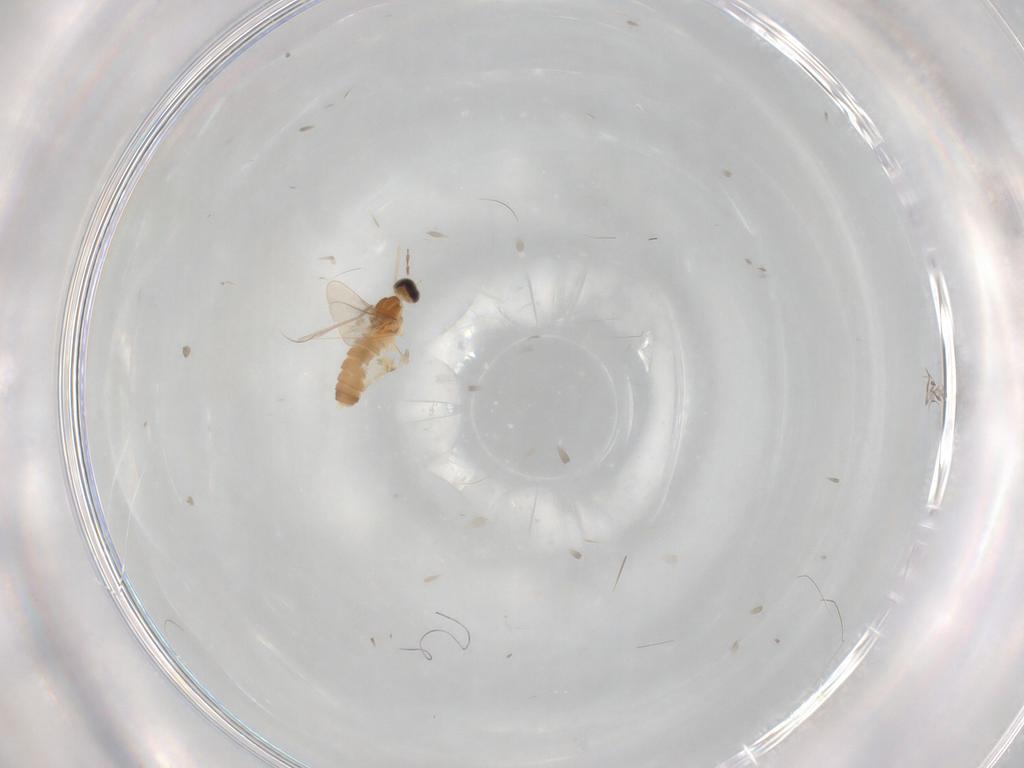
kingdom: Animalia
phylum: Arthropoda
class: Insecta
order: Diptera
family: Cecidomyiidae
